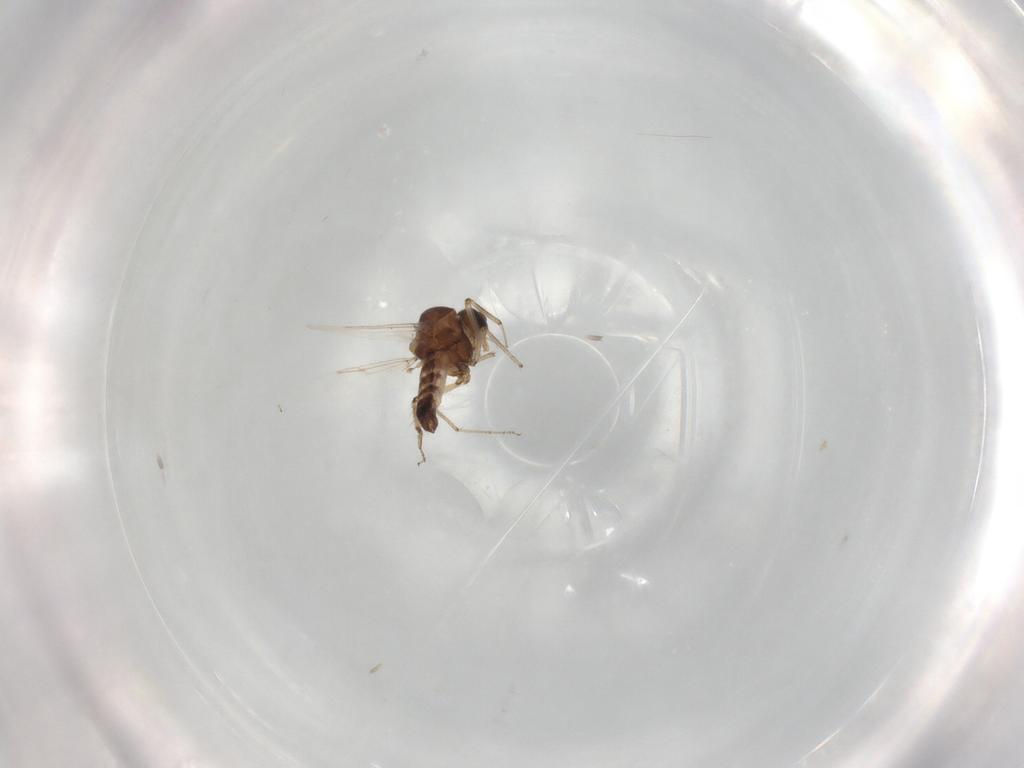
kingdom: Animalia
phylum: Arthropoda
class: Insecta
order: Diptera
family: Ceratopogonidae
